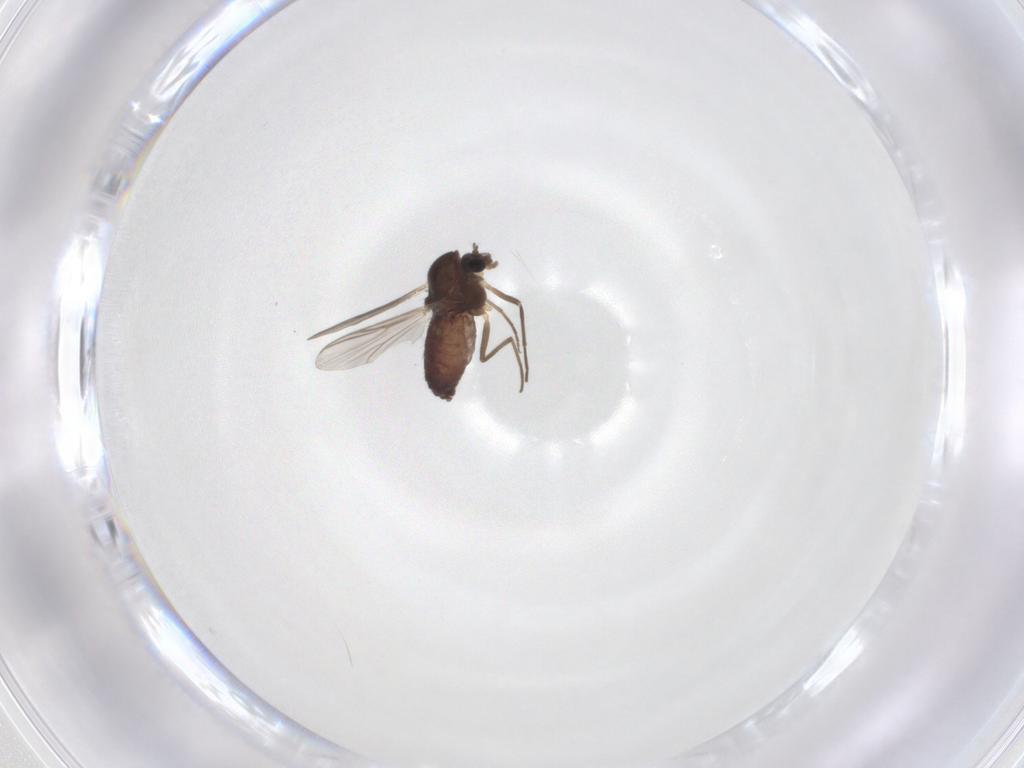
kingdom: Animalia
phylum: Arthropoda
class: Insecta
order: Diptera
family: Chironomidae
